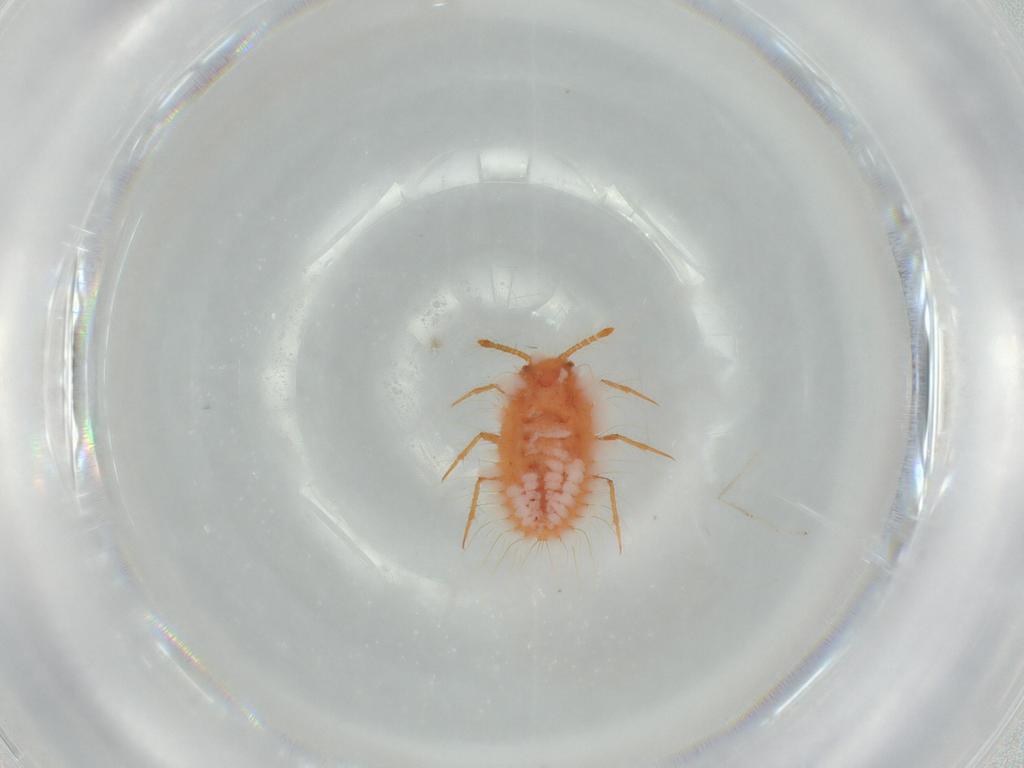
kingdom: Animalia
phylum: Arthropoda
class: Insecta
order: Hemiptera
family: Coccoidea_incertae_sedis
